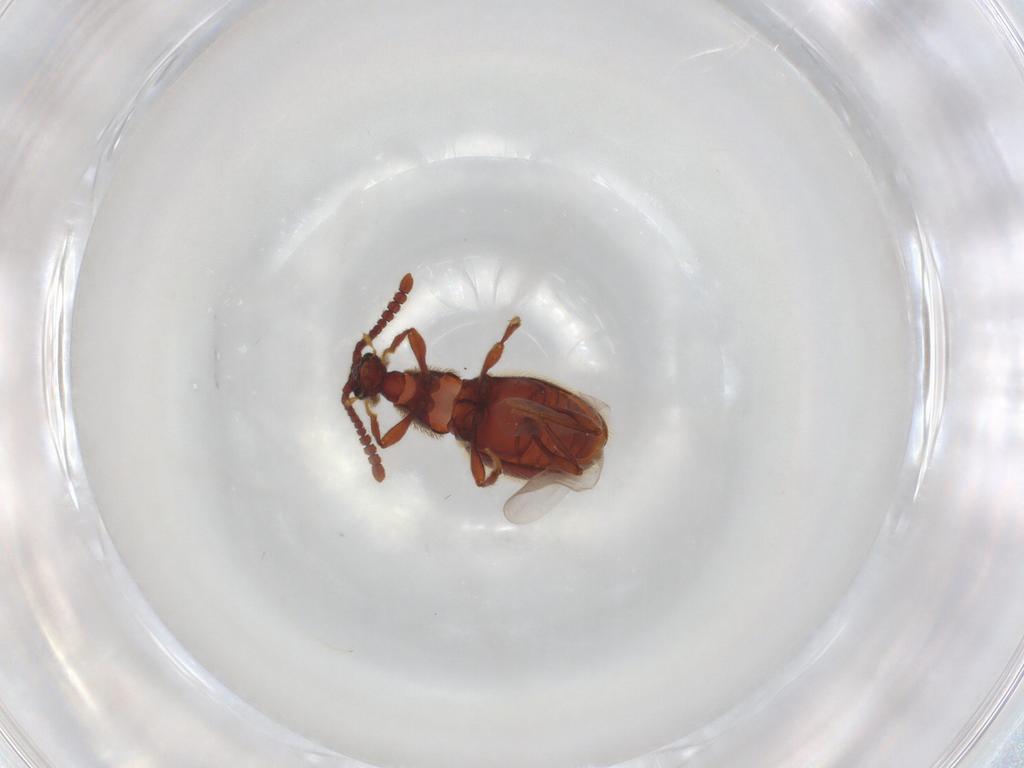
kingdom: Animalia
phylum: Arthropoda
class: Insecta
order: Coleoptera
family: Staphylinidae
